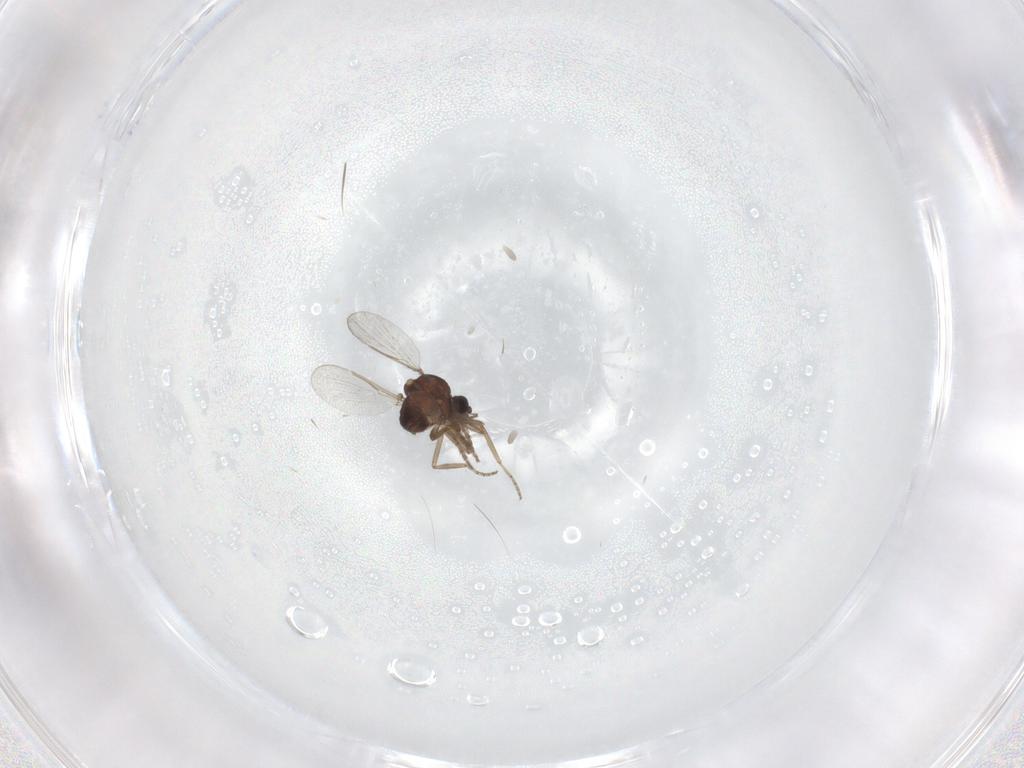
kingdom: Animalia
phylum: Arthropoda
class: Insecta
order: Diptera
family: Ceratopogonidae
